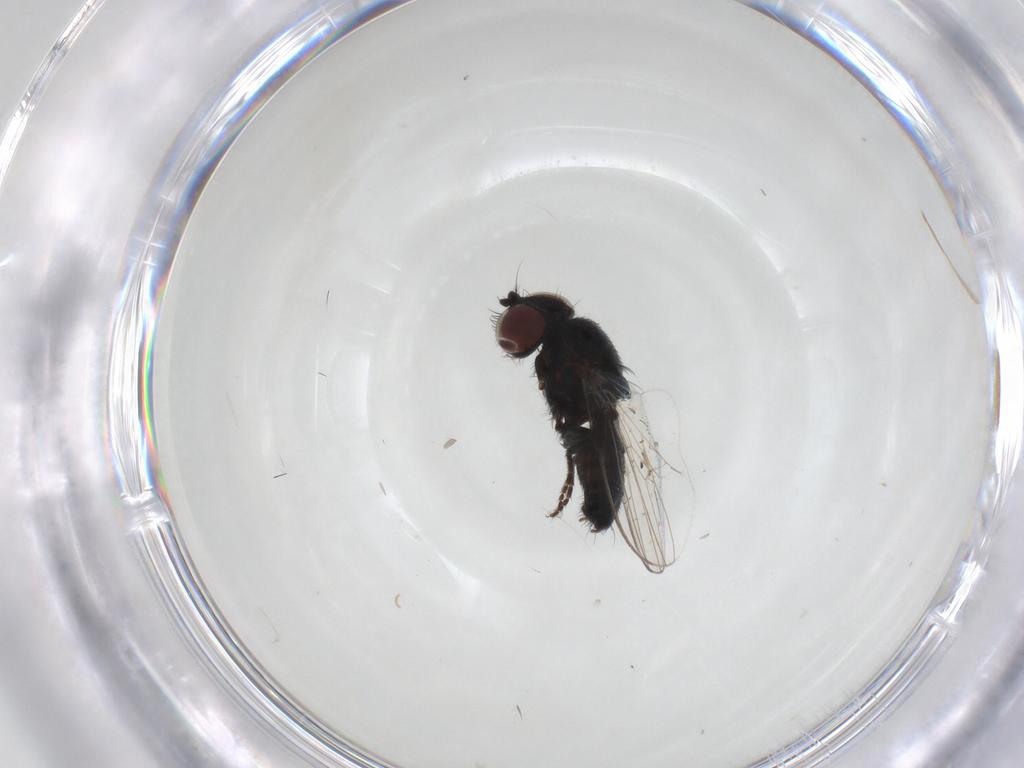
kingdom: Animalia
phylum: Arthropoda
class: Insecta
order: Diptera
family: Milichiidae
